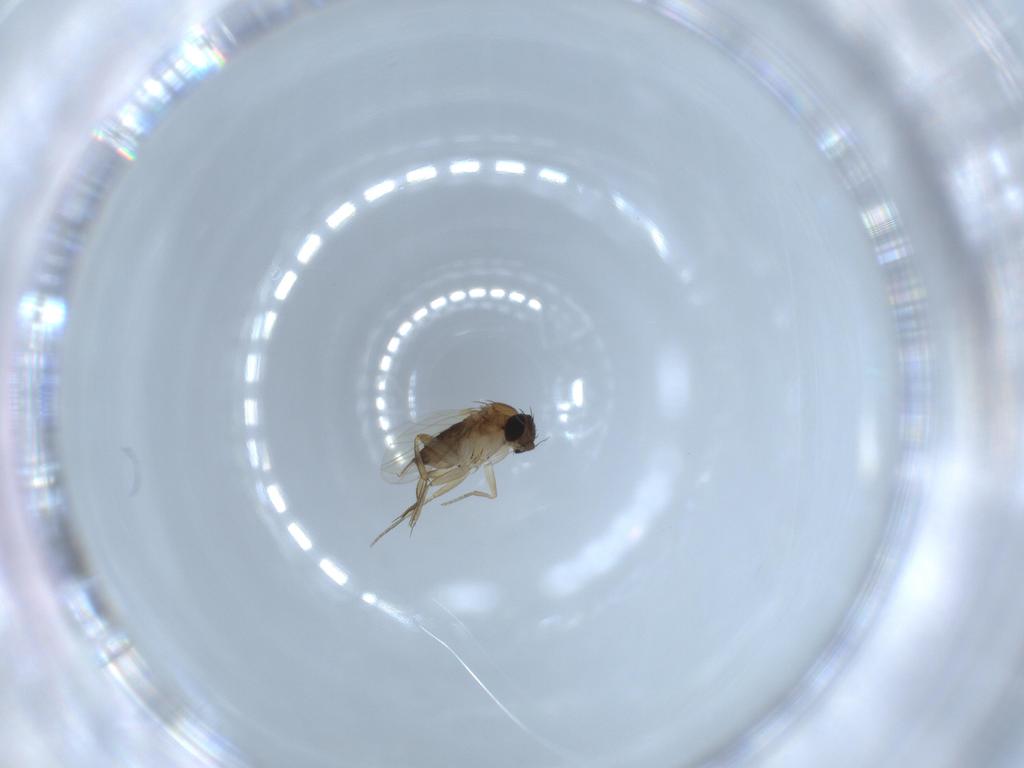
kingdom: Animalia
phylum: Arthropoda
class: Insecta
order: Diptera
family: Phoridae
